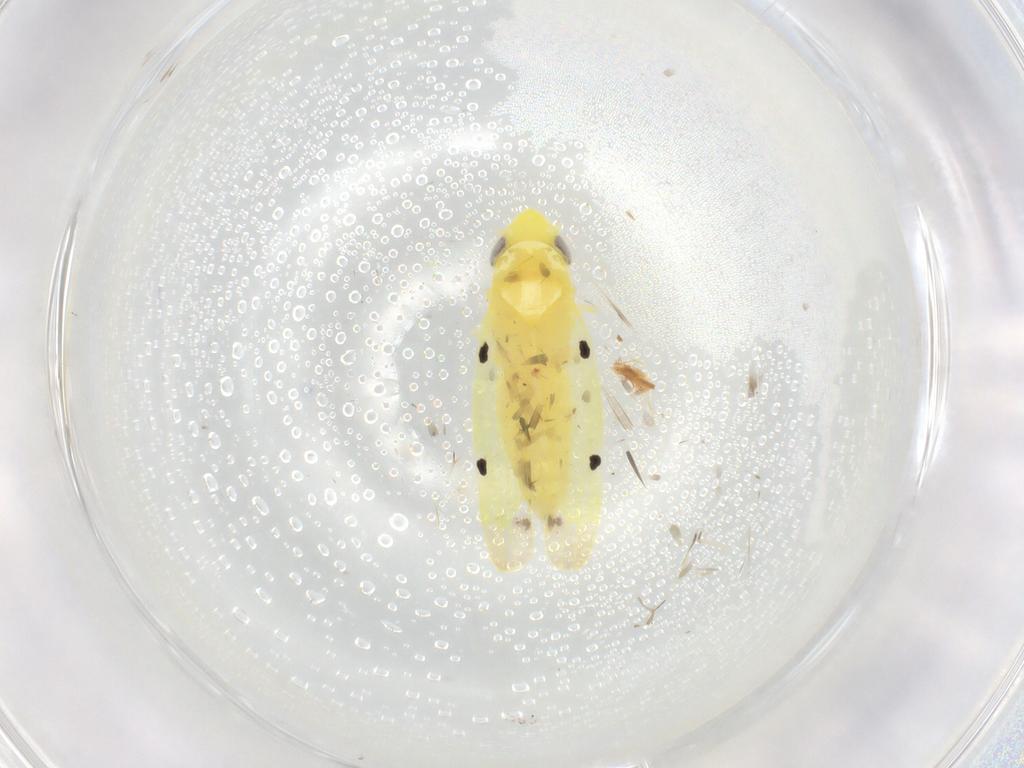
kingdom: Animalia
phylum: Arthropoda
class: Insecta
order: Hemiptera
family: Cicadellidae
